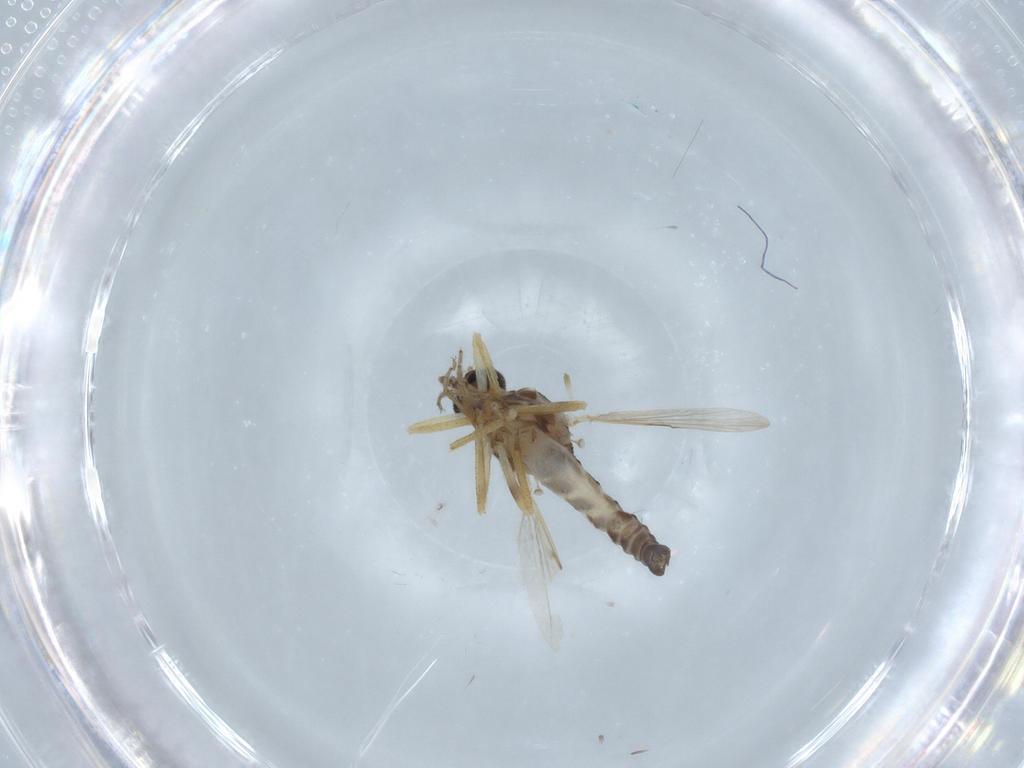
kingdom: Animalia
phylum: Arthropoda
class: Insecta
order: Diptera
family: Ceratopogonidae
